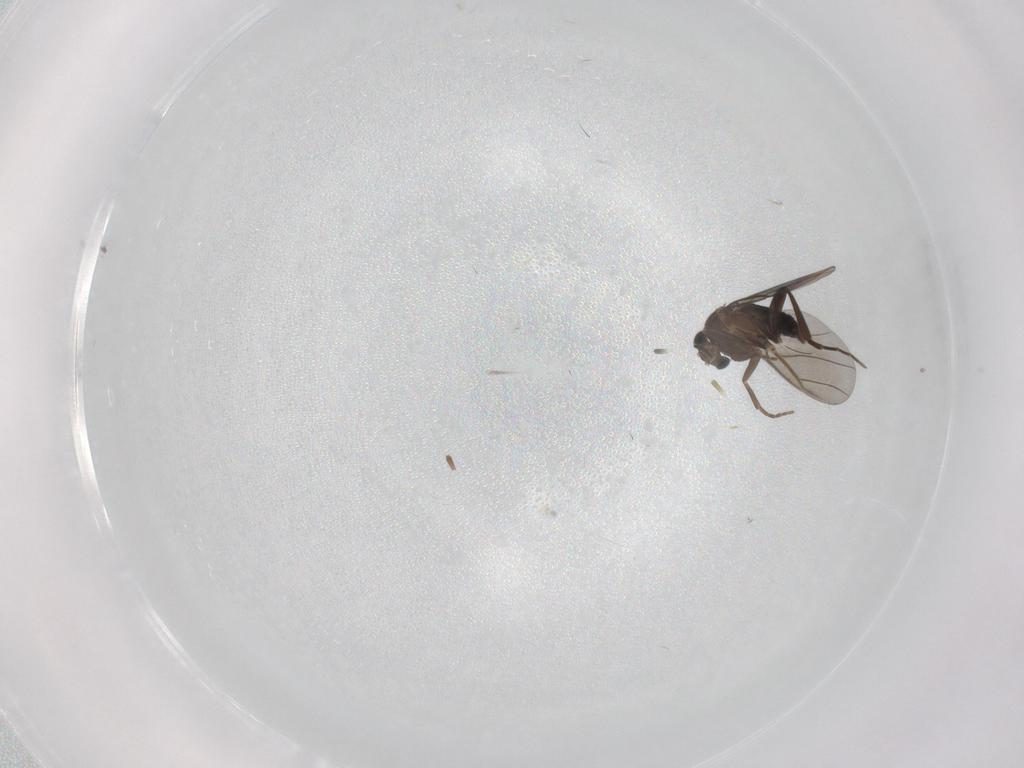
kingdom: Animalia
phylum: Arthropoda
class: Insecta
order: Diptera
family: Cecidomyiidae
